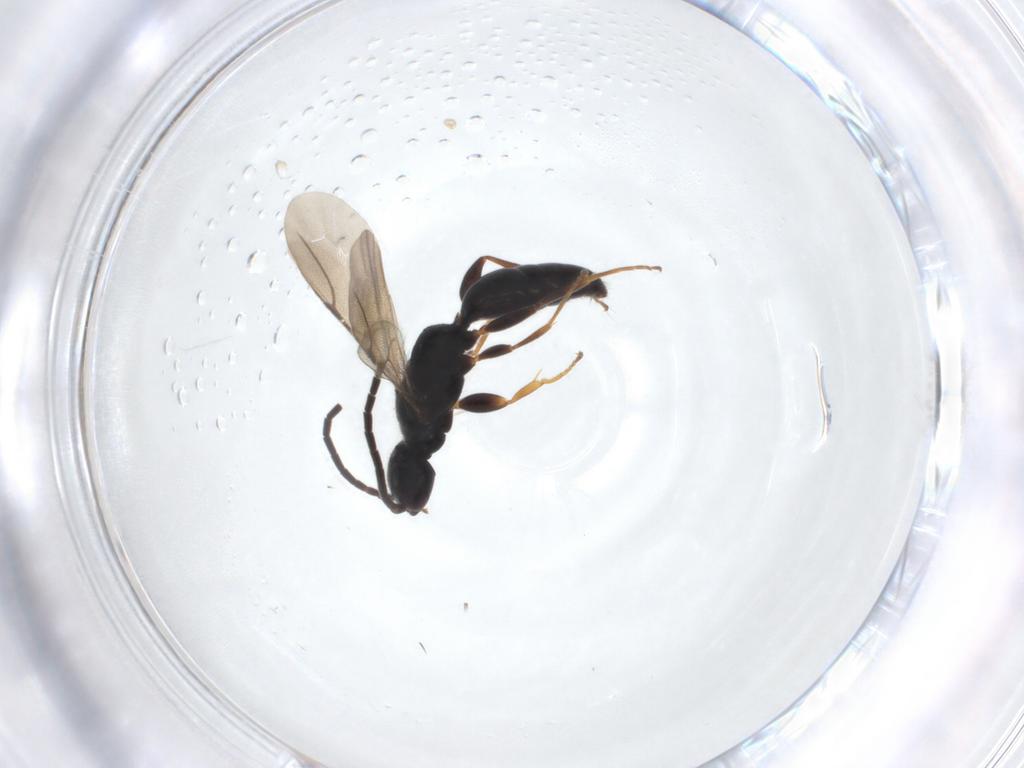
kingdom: Animalia
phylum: Arthropoda
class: Insecta
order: Hymenoptera
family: Bethylidae
